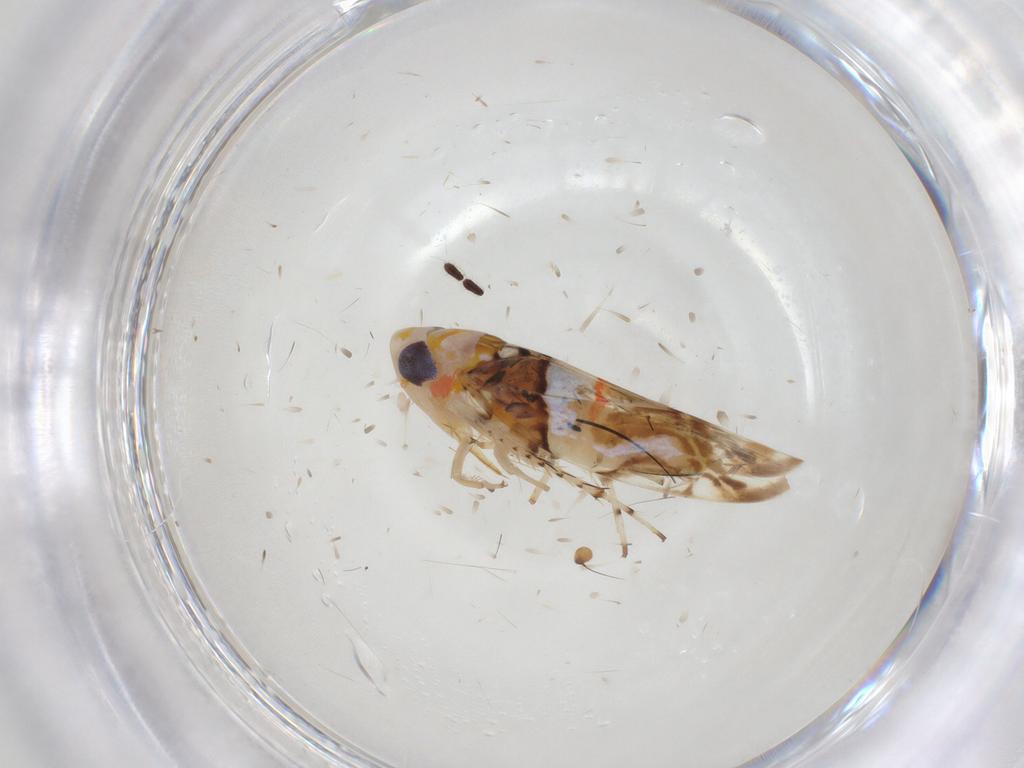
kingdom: Animalia
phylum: Arthropoda
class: Insecta
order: Hemiptera
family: Cicadellidae
